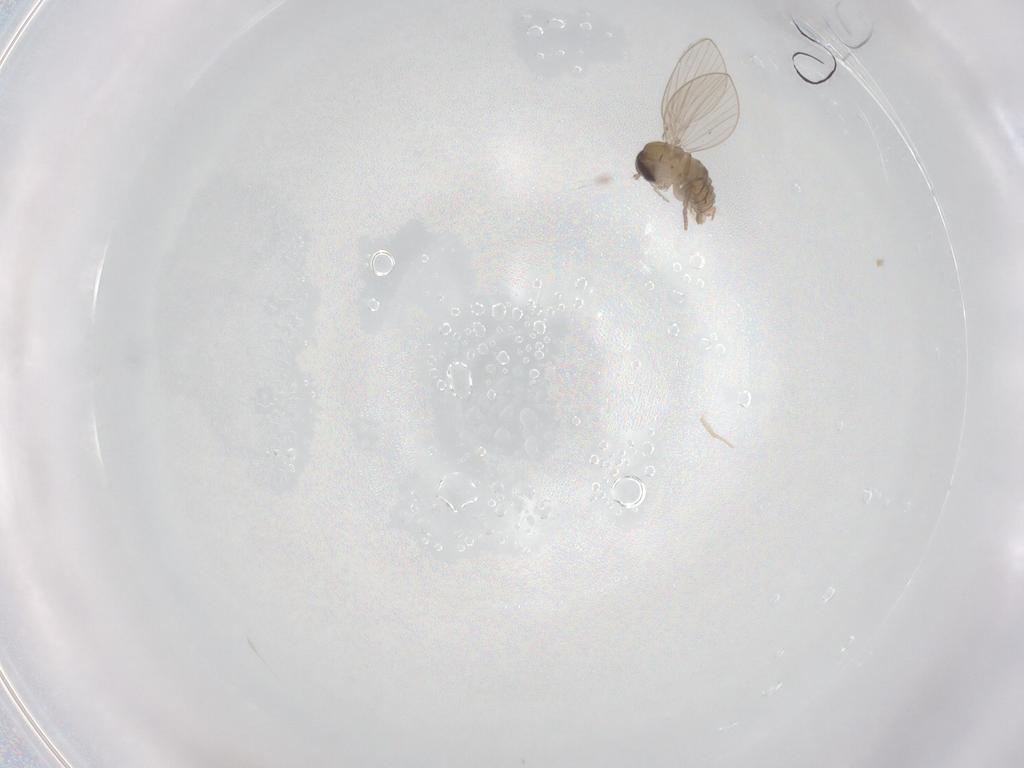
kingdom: Animalia
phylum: Arthropoda
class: Insecta
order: Diptera
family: Psychodidae
